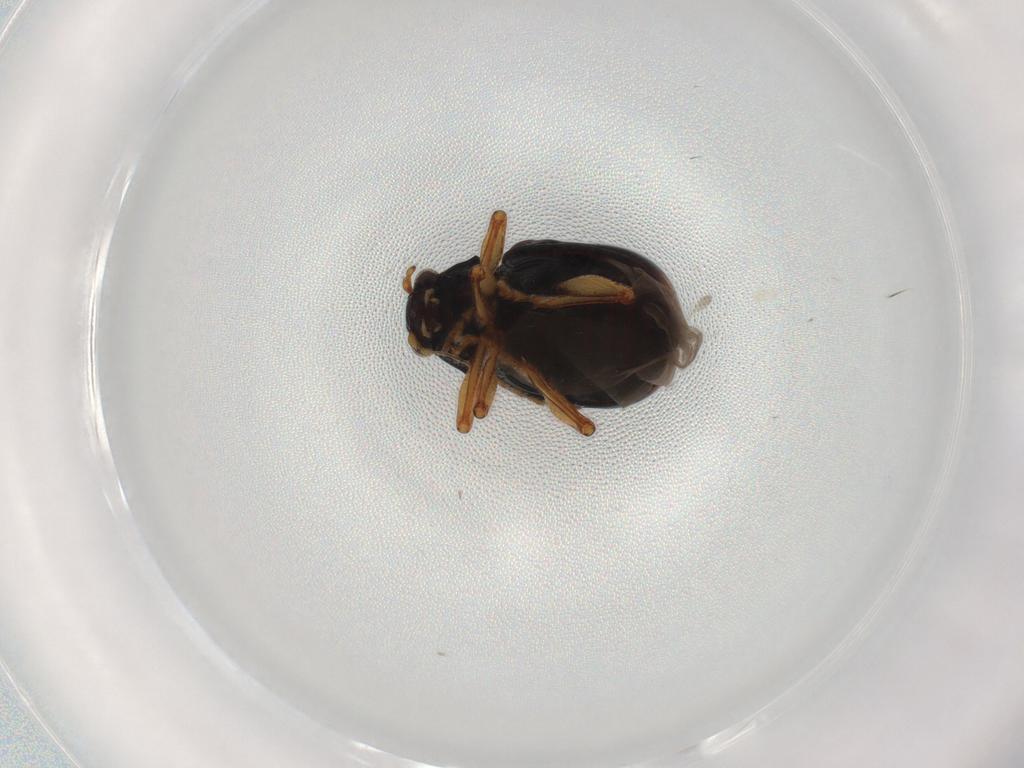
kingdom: Animalia
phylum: Arthropoda
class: Insecta
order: Coleoptera
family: Chrysomelidae
